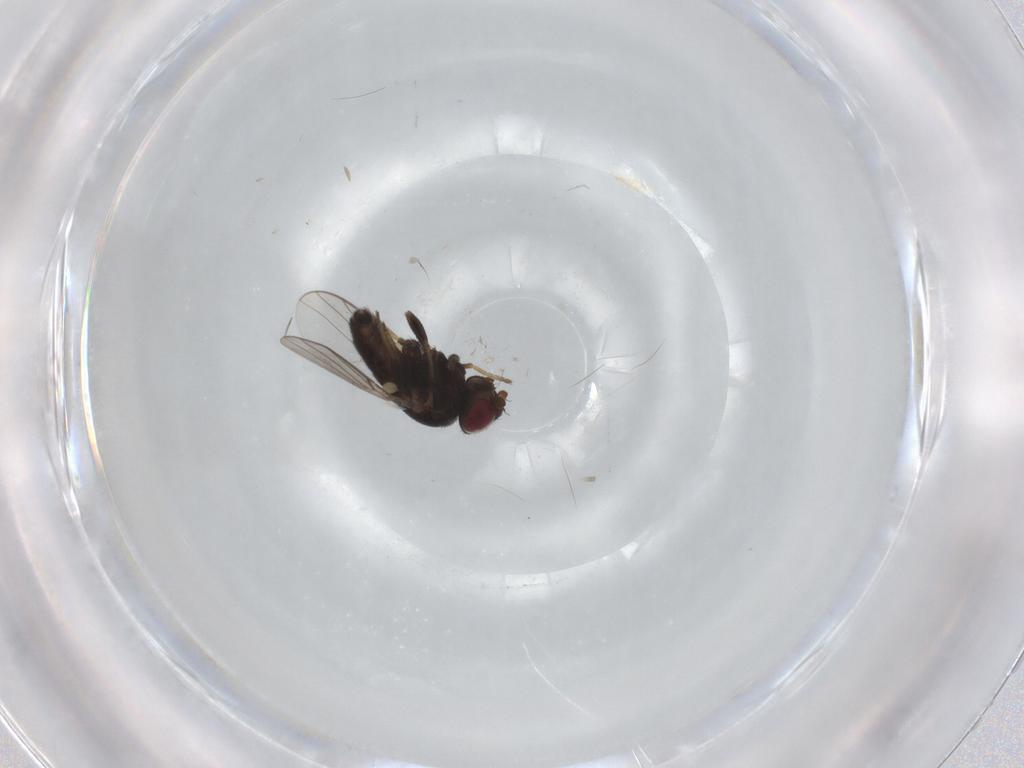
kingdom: Animalia
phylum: Arthropoda
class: Insecta
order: Diptera
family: Chloropidae
